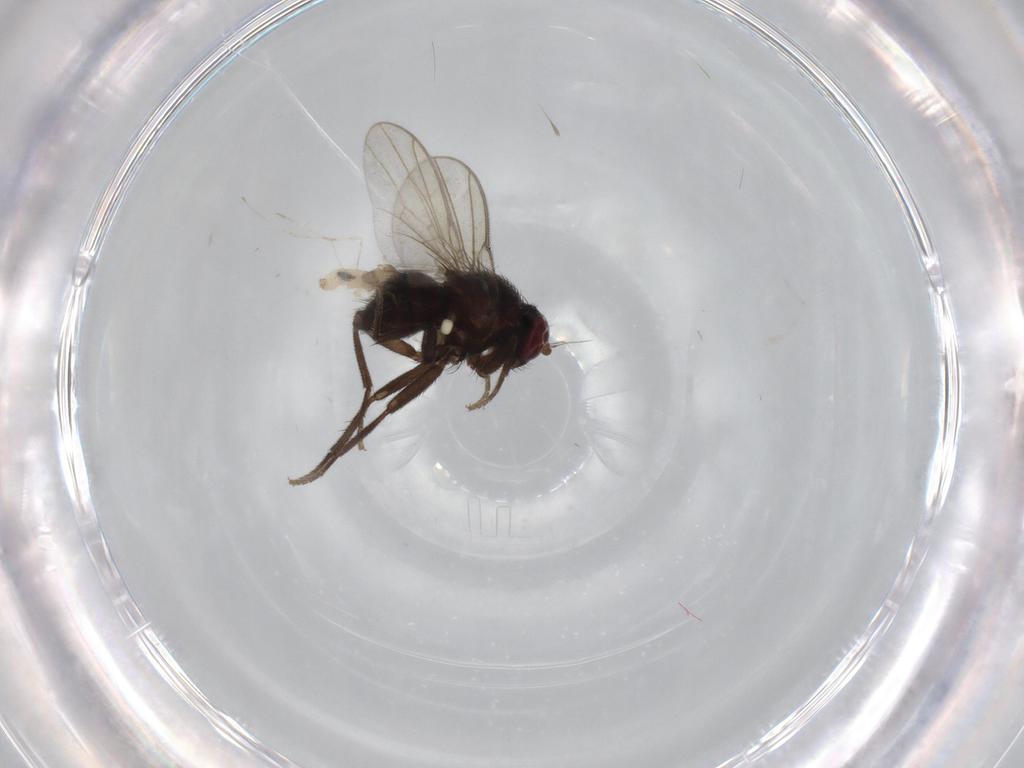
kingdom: Animalia
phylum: Arthropoda
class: Insecta
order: Diptera
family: Agromyzidae
